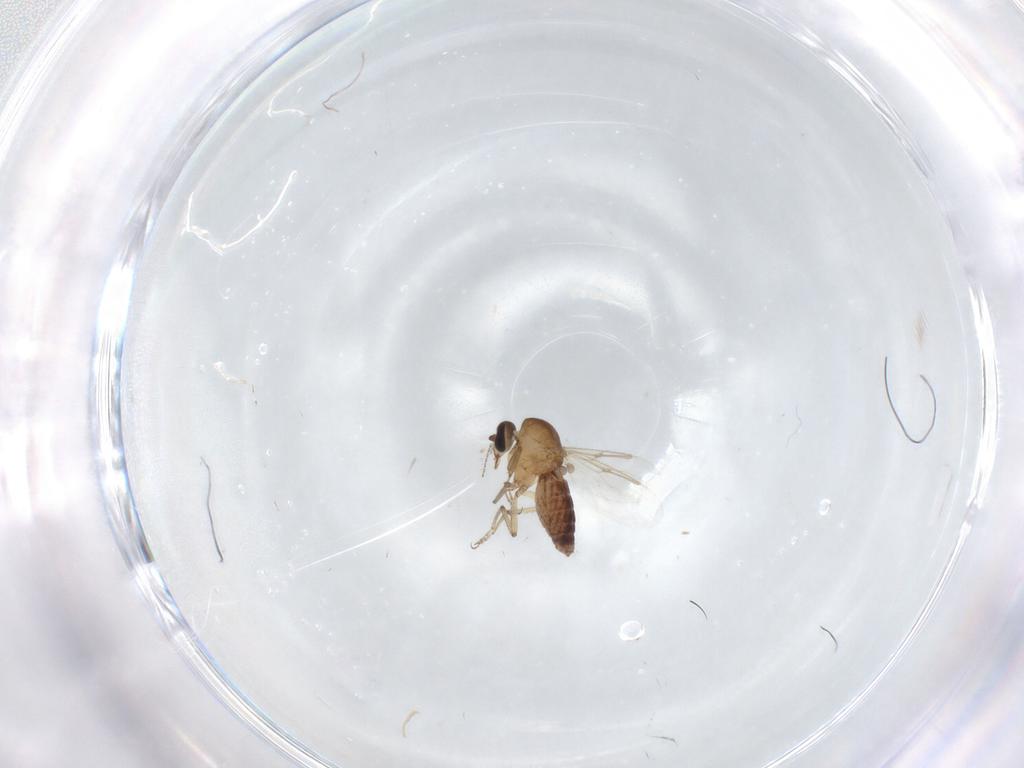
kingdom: Animalia
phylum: Arthropoda
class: Insecta
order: Diptera
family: Ceratopogonidae
